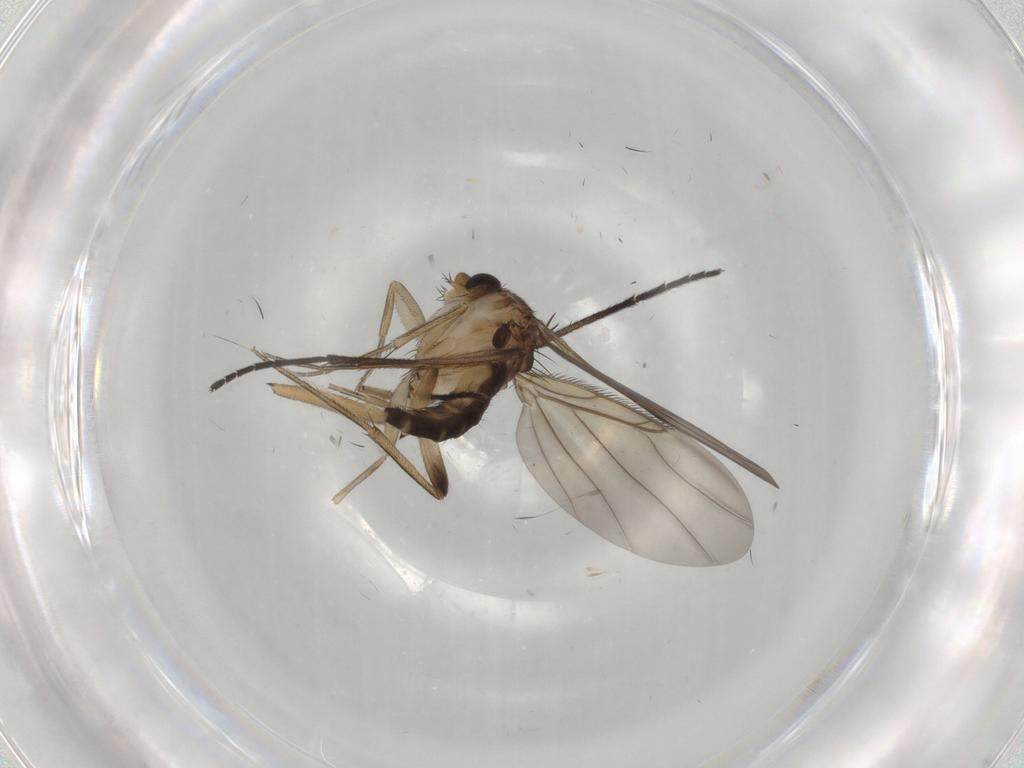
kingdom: Animalia
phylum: Arthropoda
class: Insecta
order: Diptera
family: Phoridae
